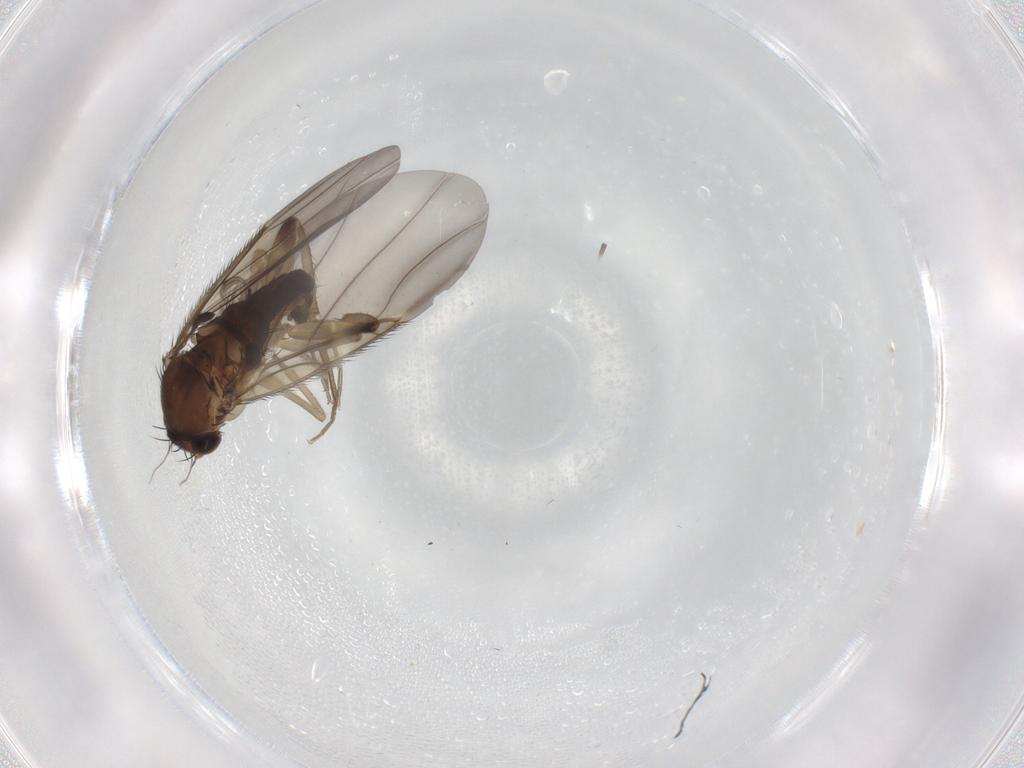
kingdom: Animalia
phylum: Arthropoda
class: Insecta
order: Diptera
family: Phoridae
